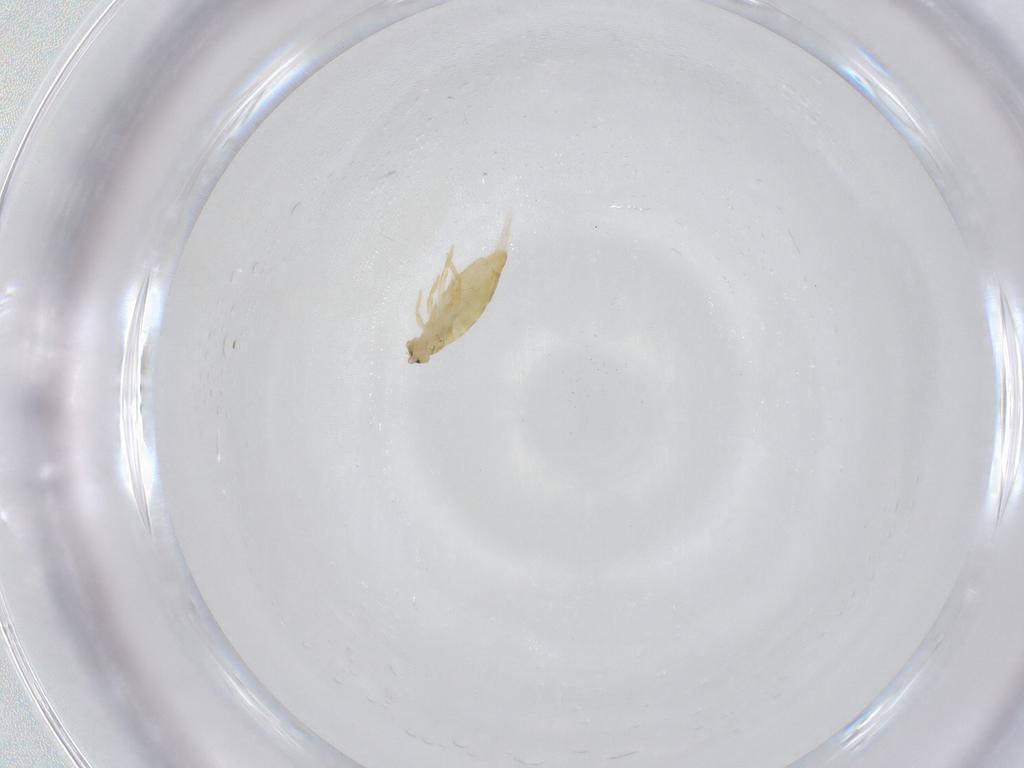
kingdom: Animalia
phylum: Arthropoda
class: Collembola
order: Entomobryomorpha
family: Entomobryidae
